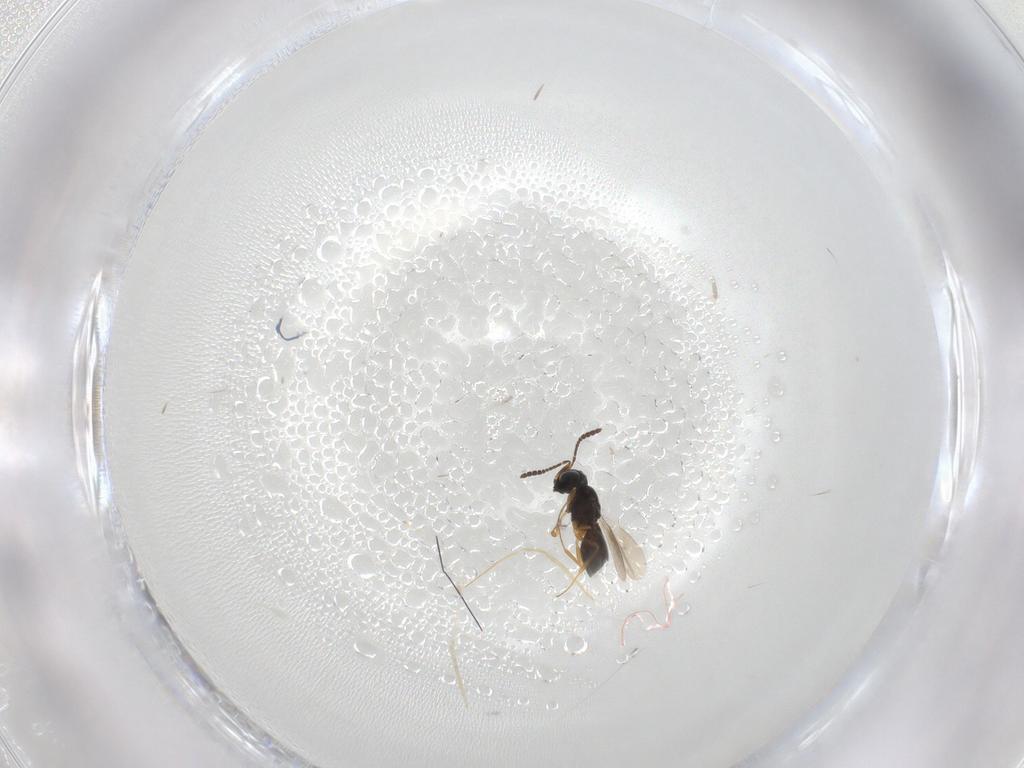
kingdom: Animalia
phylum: Arthropoda
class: Insecta
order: Hymenoptera
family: Scelionidae
